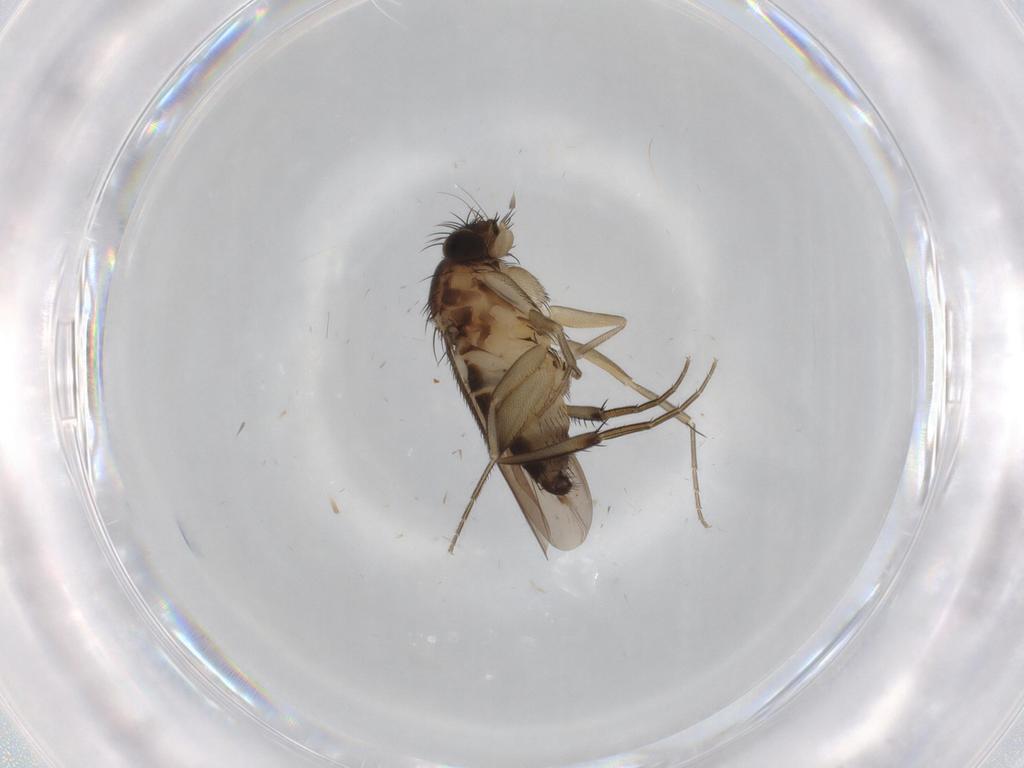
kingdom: Animalia
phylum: Arthropoda
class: Insecta
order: Diptera
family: Phoridae
